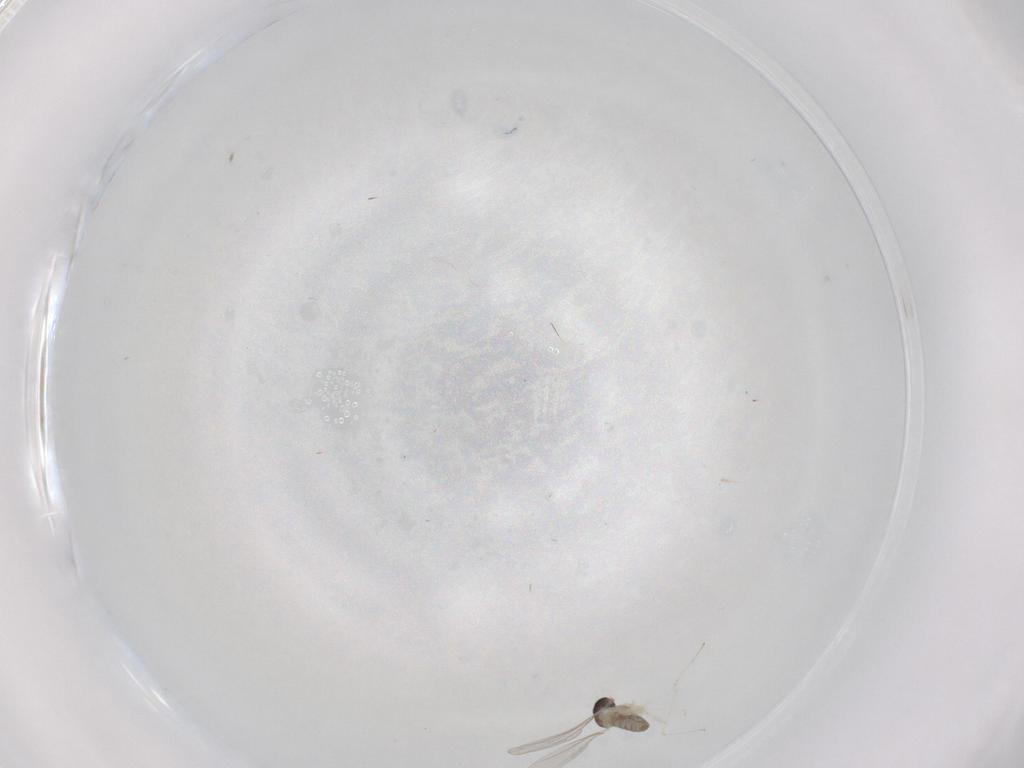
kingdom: Animalia
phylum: Arthropoda
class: Insecta
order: Diptera
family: Cecidomyiidae
